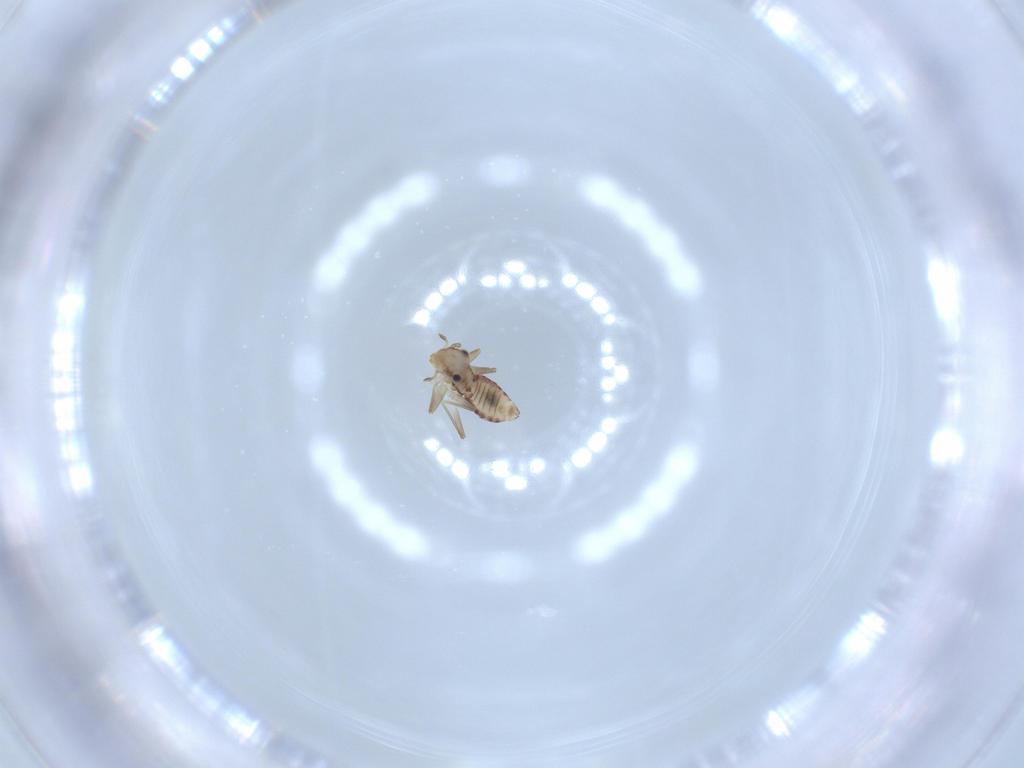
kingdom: Animalia
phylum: Arthropoda
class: Insecta
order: Psocodea
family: Lepidopsocidae
